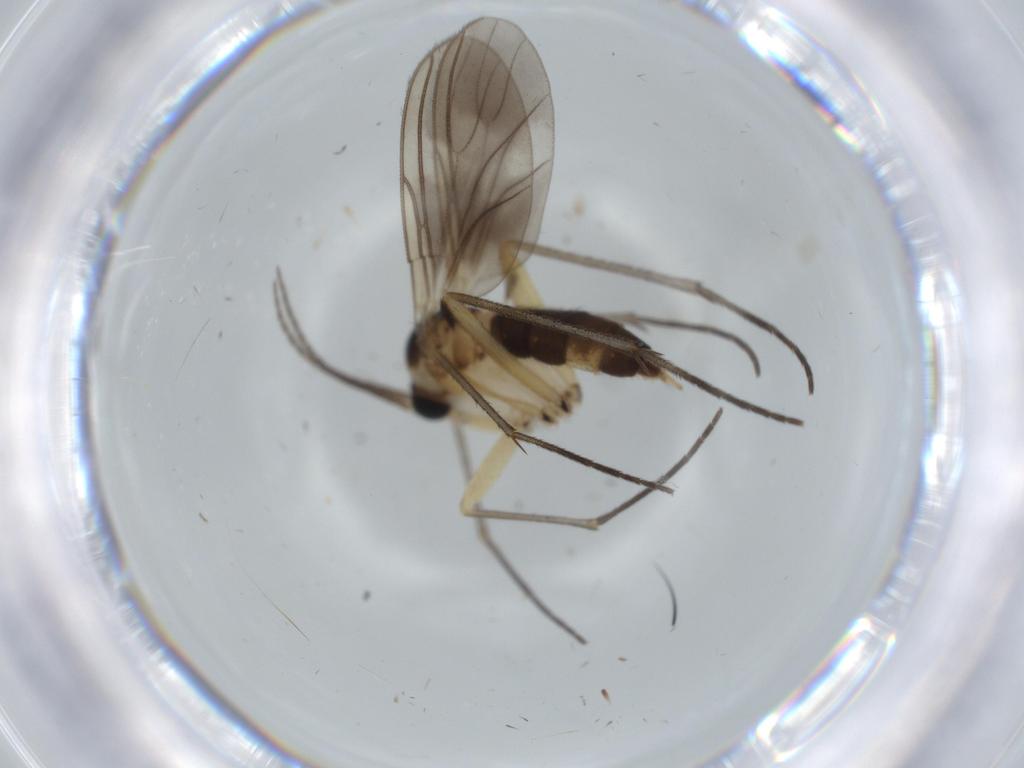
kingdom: Animalia
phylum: Arthropoda
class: Insecta
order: Diptera
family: Sciaridae
